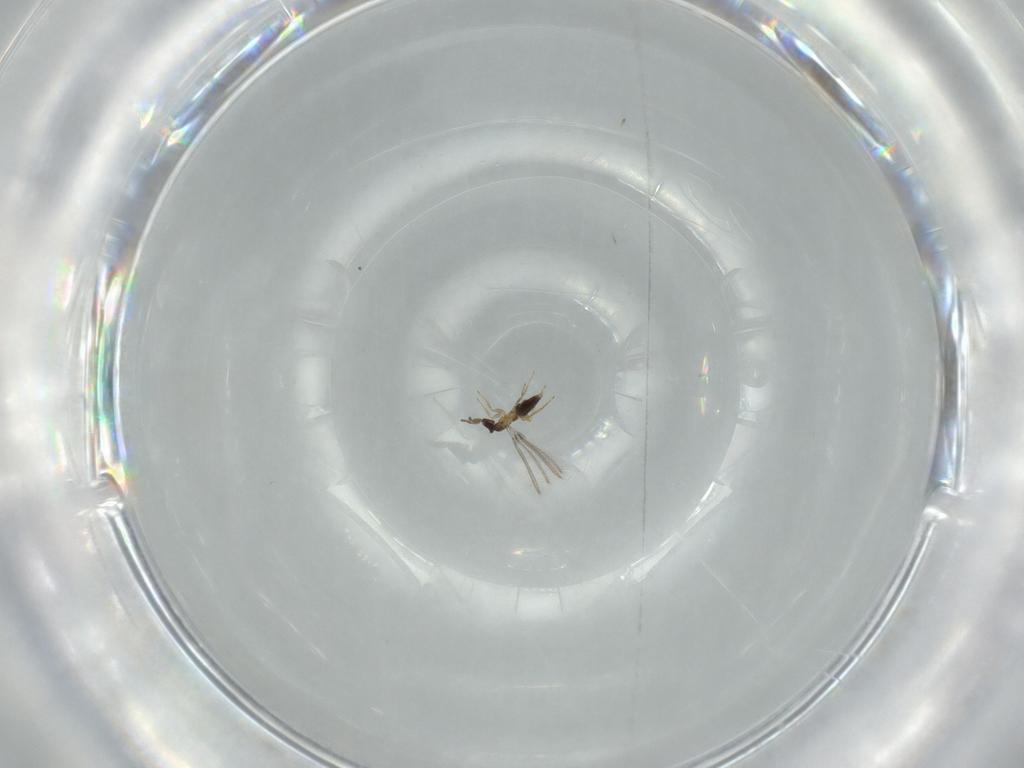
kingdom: Animalia
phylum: Arthropoda
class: Insecta
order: Hymenoptera
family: Mymaridae
